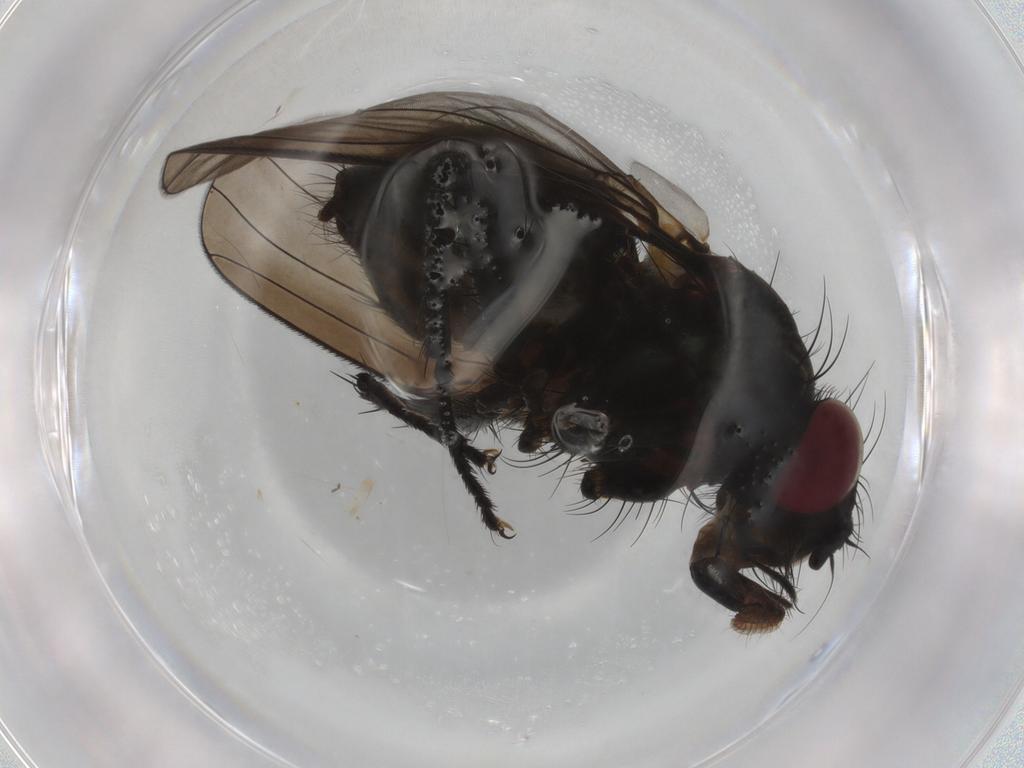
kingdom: Animalia
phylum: Arthropoda
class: Insecta
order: Diptera
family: Muscidae
